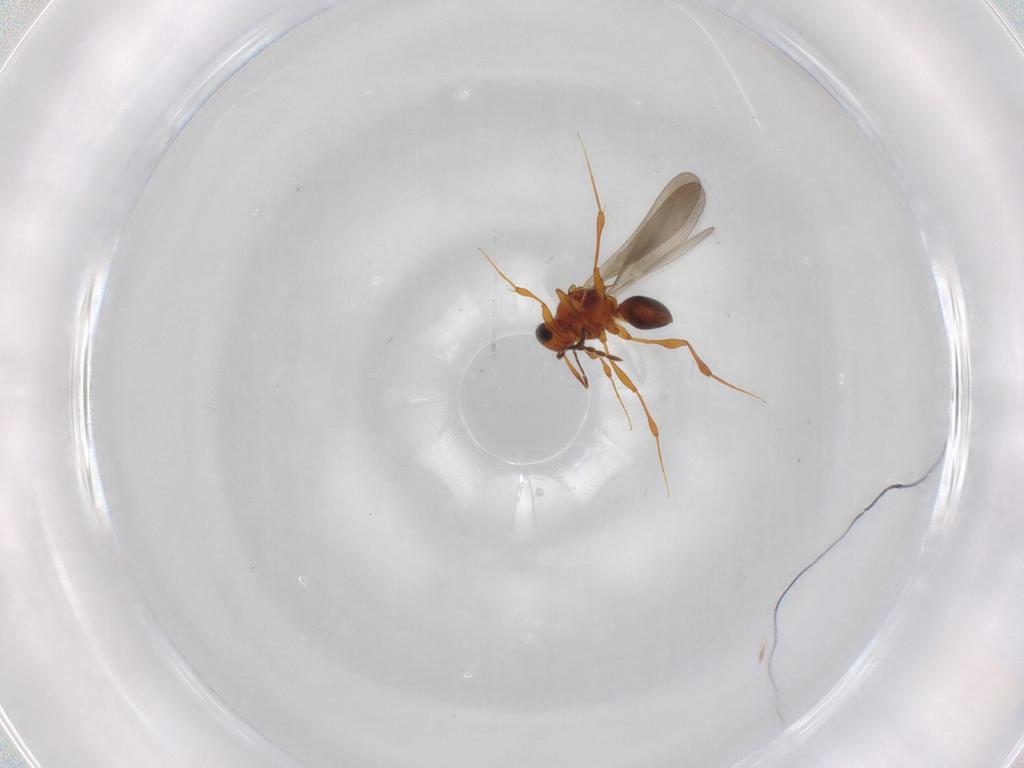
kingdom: Animalia
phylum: Arthropoda
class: Insecta
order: Hymenoptera
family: Platygastridae
